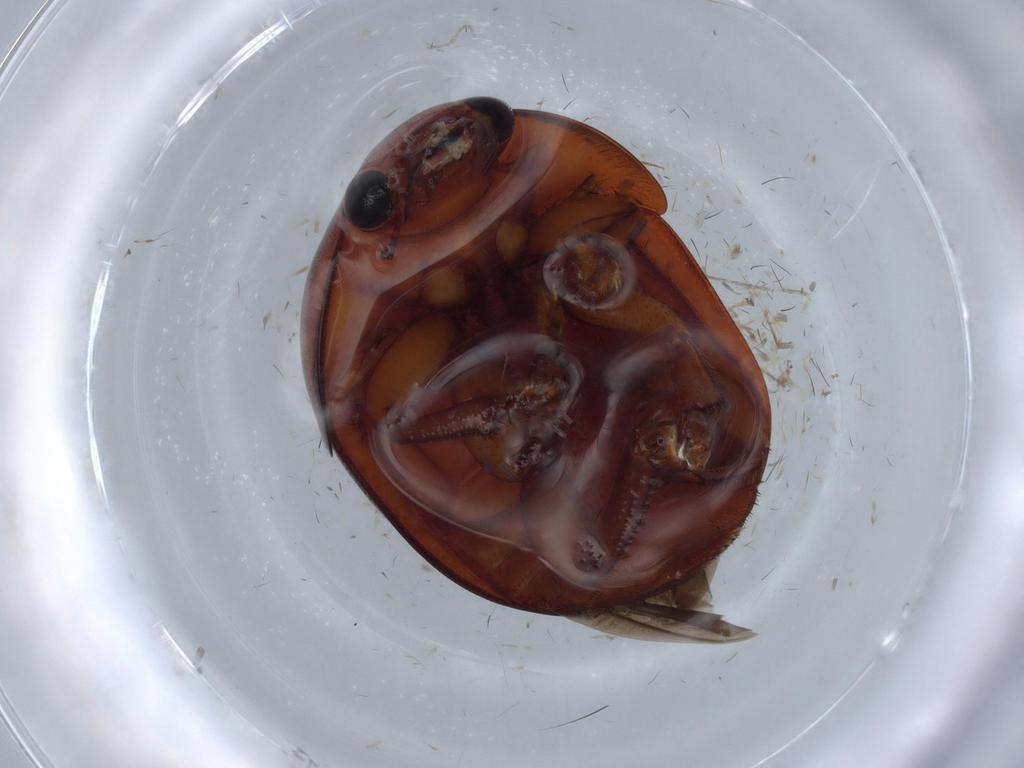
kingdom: Animalia
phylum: Arthropoda
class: Insecta
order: Coleoptera
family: Nitidulidae
